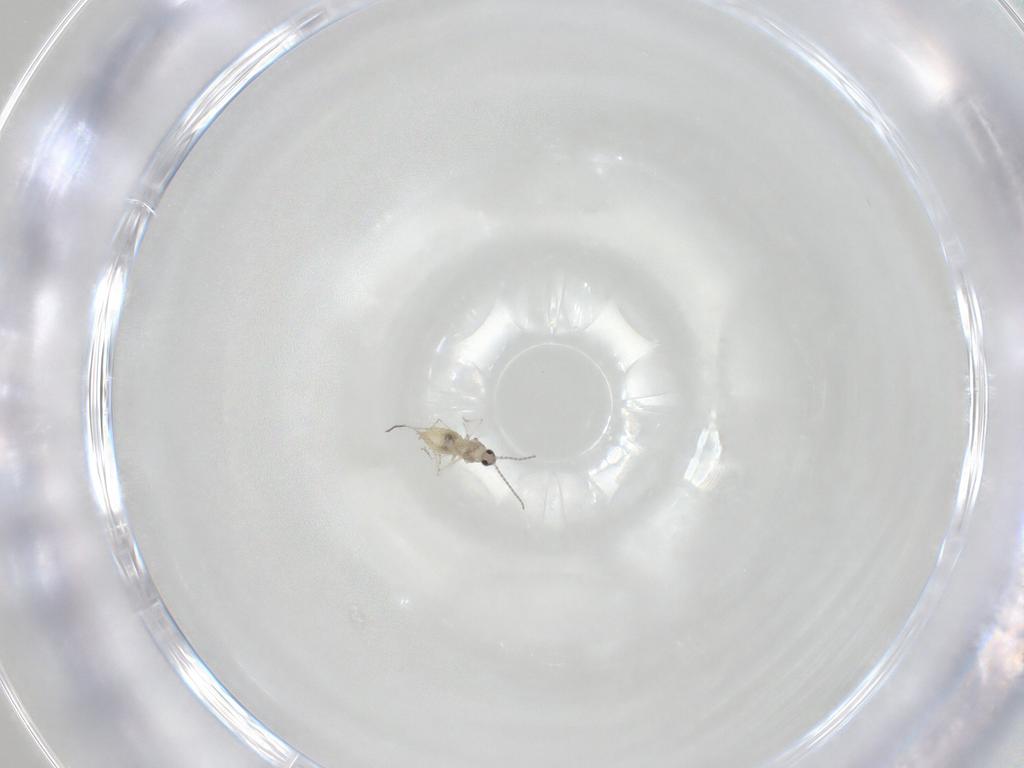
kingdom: Animalia
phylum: Arthropoda
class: Insecta
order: Diptera
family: Cecidomyiidae
